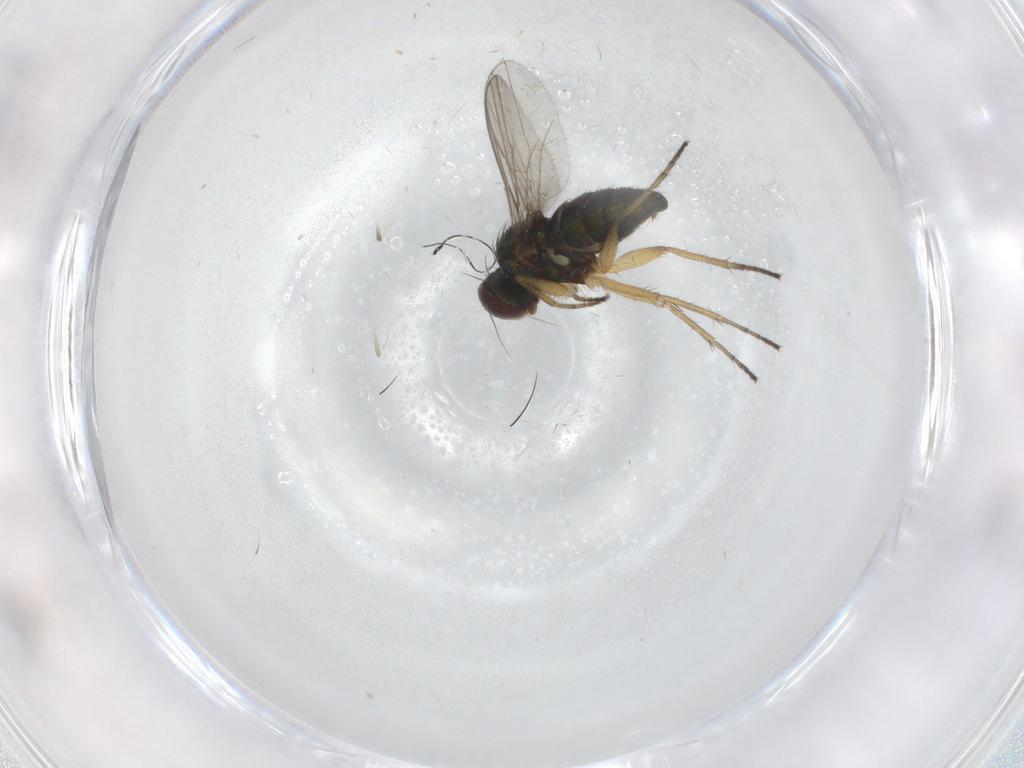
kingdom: Animalia
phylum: Arthropoda
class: Insecta
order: Diptera
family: Dolichopodidae
